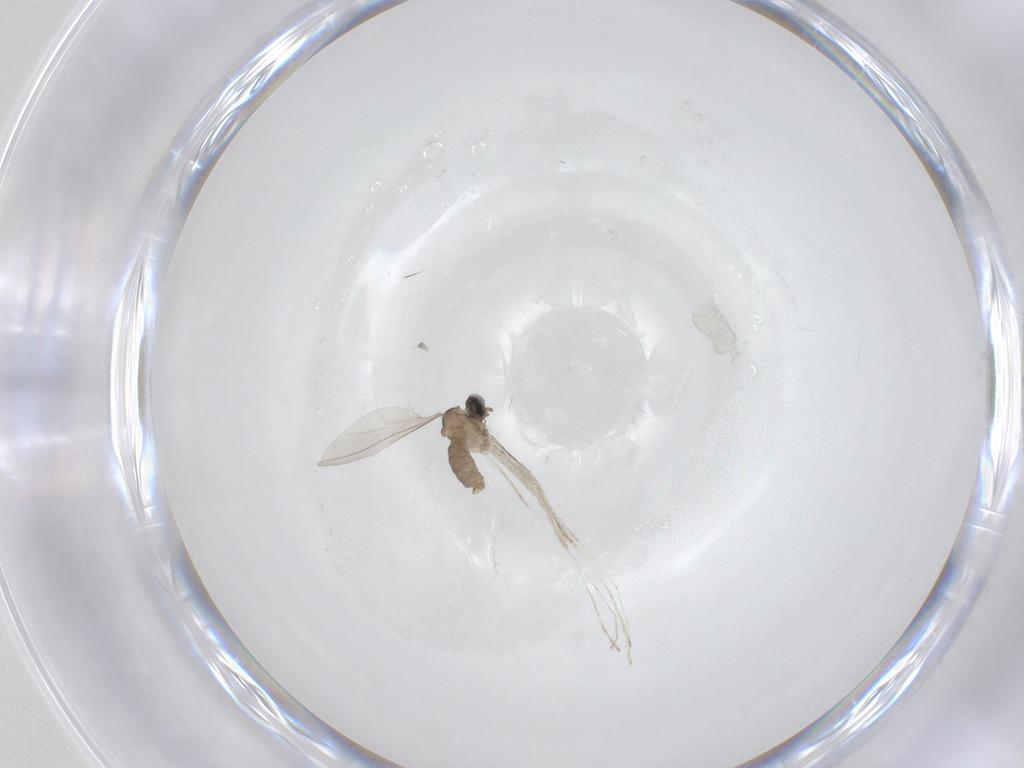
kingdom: Animalia
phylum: Arthropoda
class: Insecta
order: Diptera
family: Cecidomyiidae
